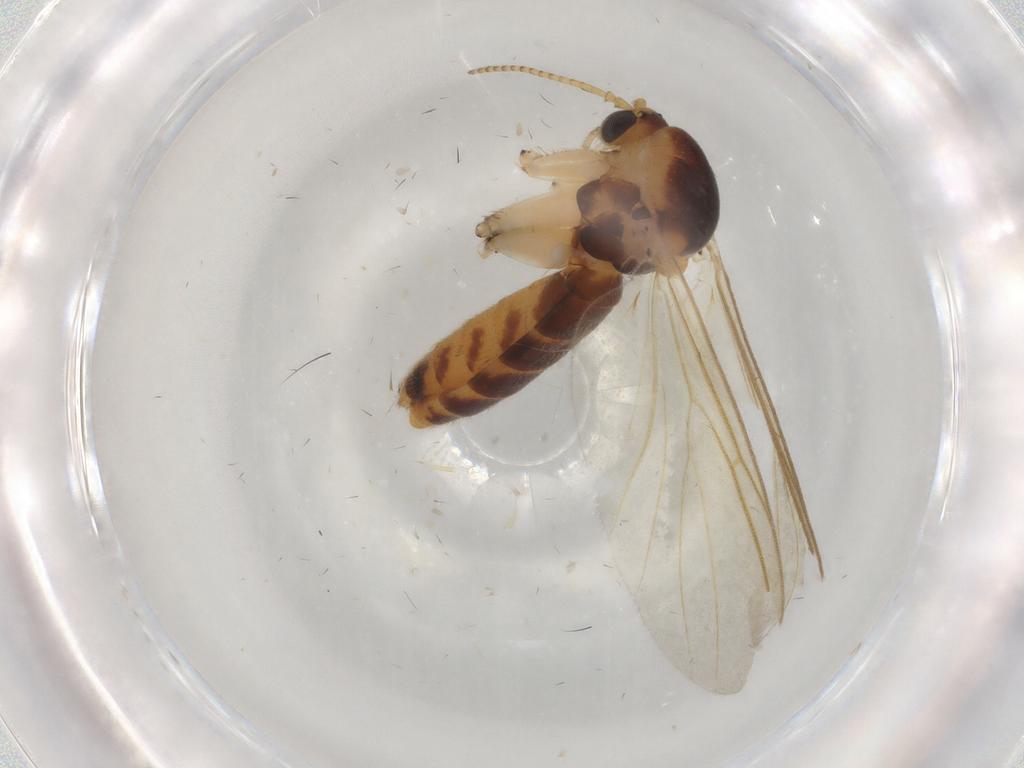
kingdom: Animalia
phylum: Arthropoda
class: Insecta
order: Diptera
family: Mycetophilidae
